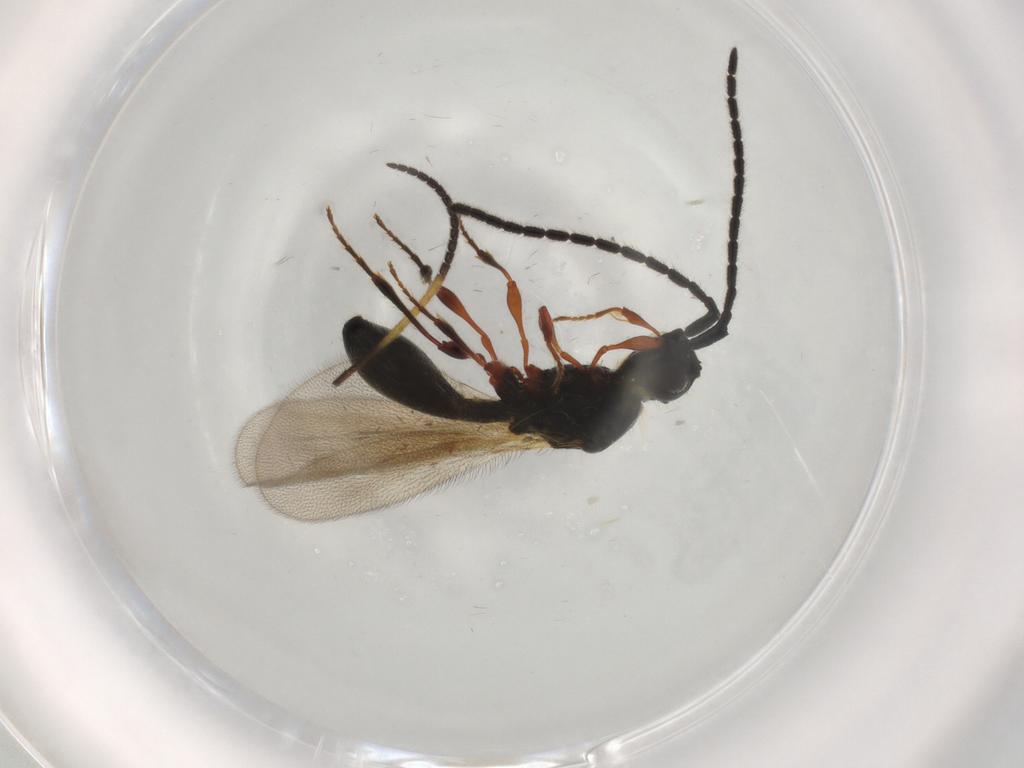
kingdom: Animalia
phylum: Arthropoda
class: Insecta
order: Hymenoptera
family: Diapriidae
